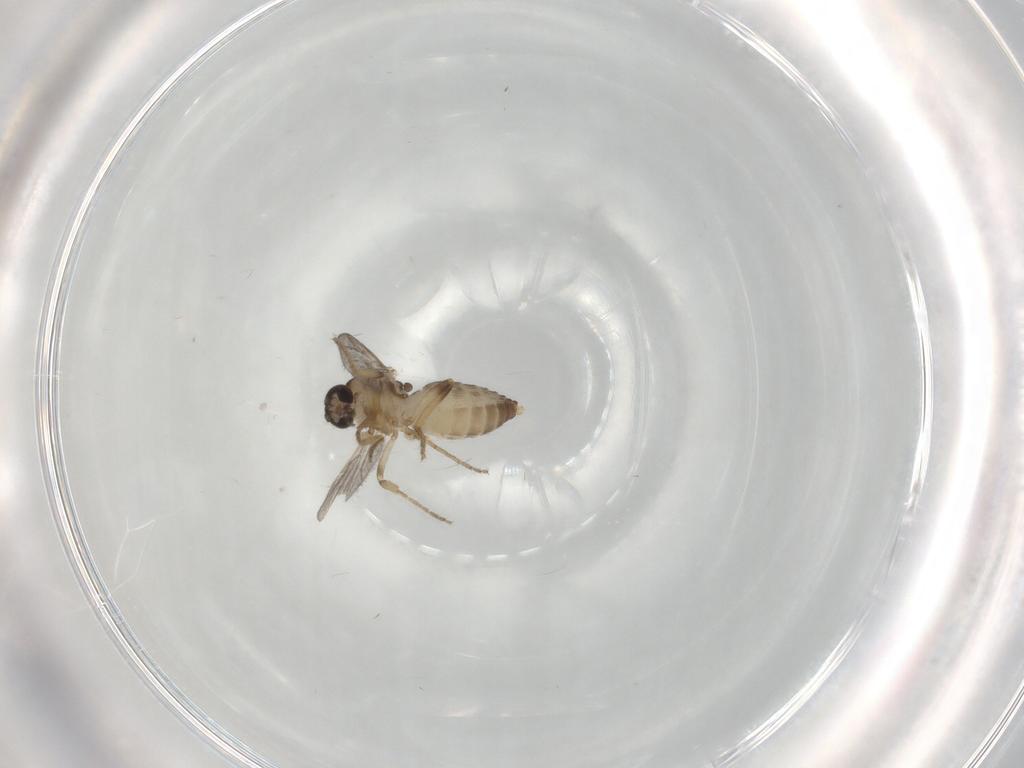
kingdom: Animalia
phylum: Arthropoda
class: Insecta
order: Diptera
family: Ceratopogonidae
